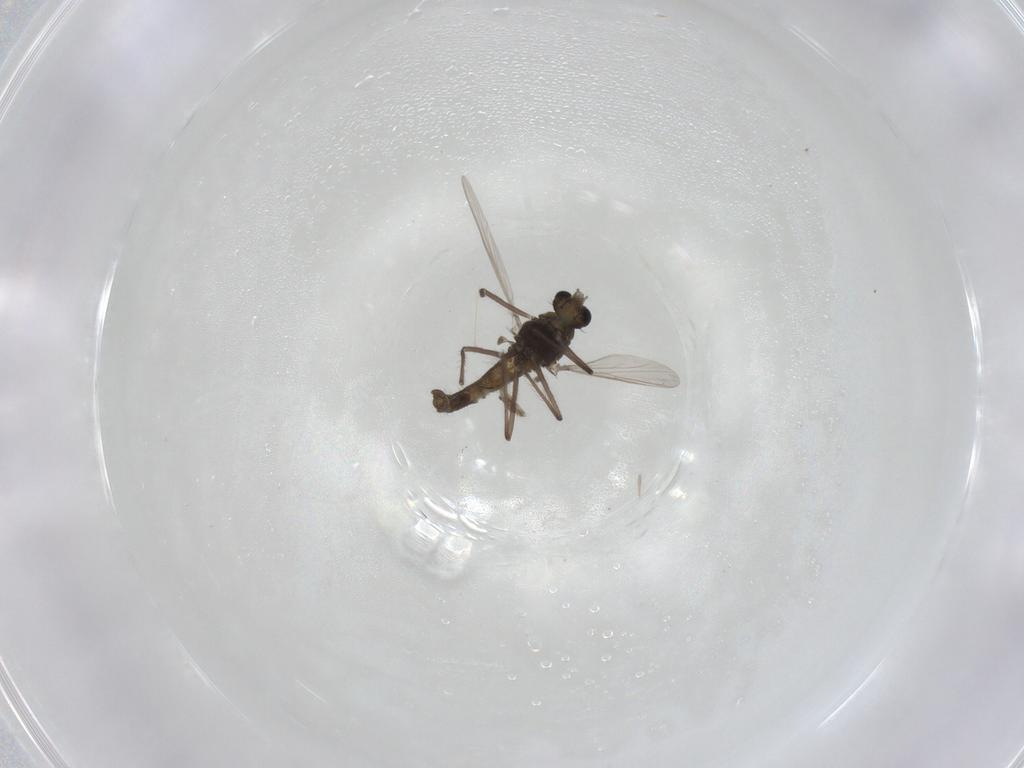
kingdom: Animalia
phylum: Arthropoda
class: Insecta
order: Diptera
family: Chironomidae
